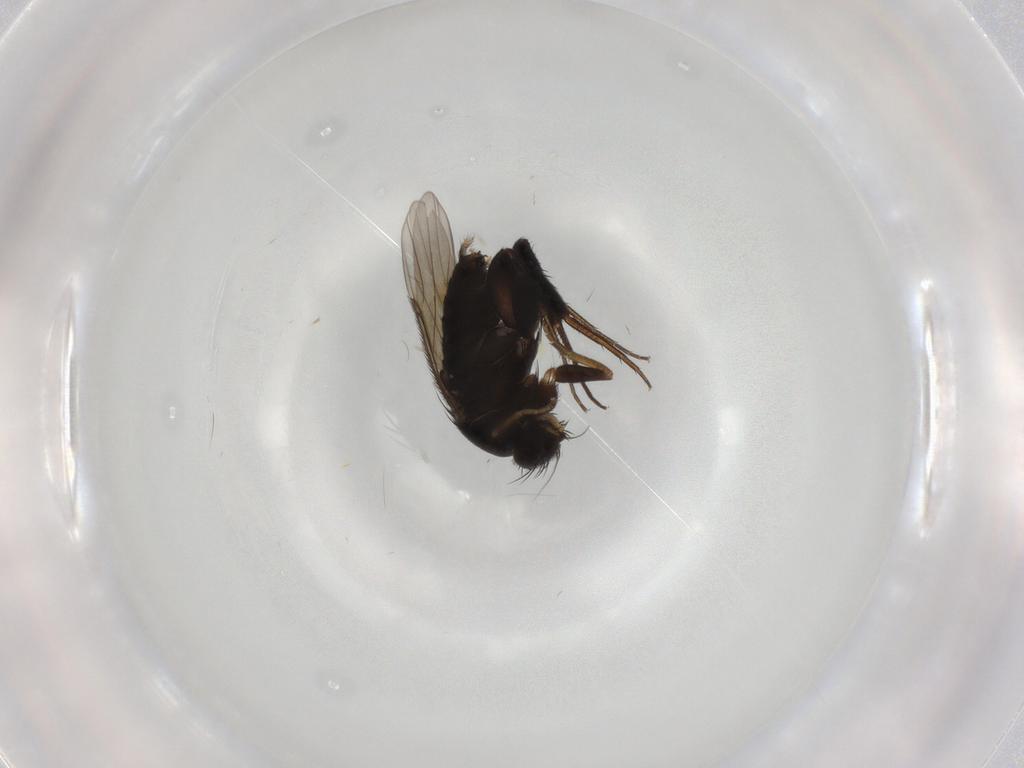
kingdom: Animalia
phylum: Arthropoda
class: Insecta
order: Diptera
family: Phoridae
